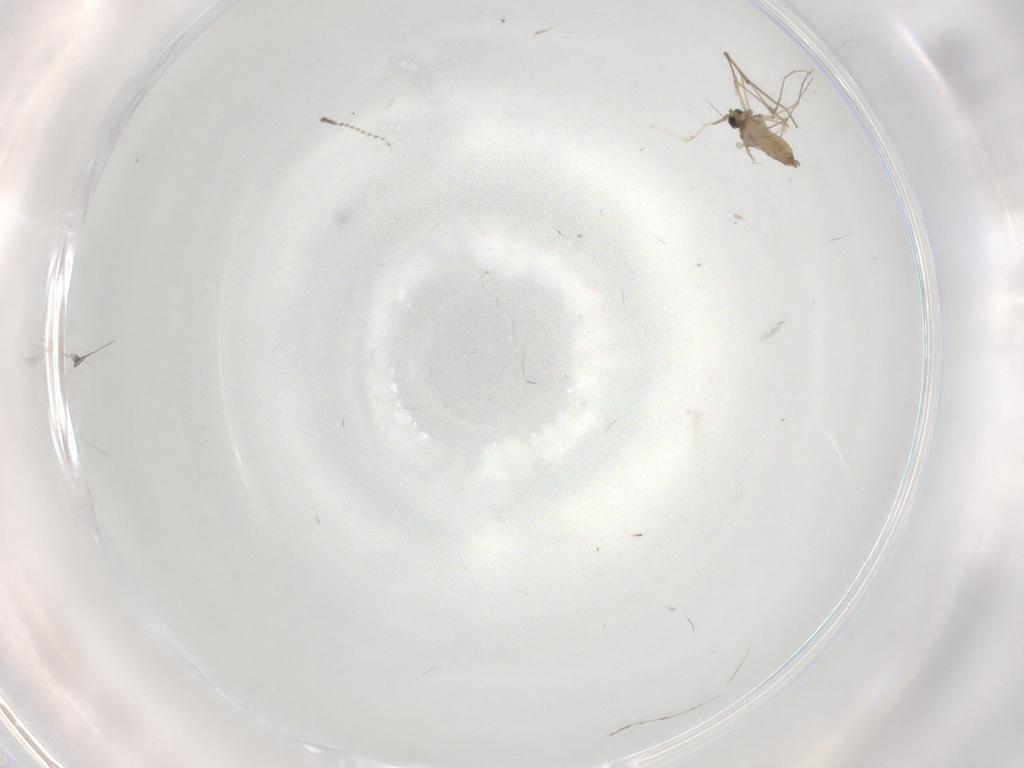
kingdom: Animalia
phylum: Arthropoda
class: Insecta
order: Diptera
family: Cecidomyiidae
